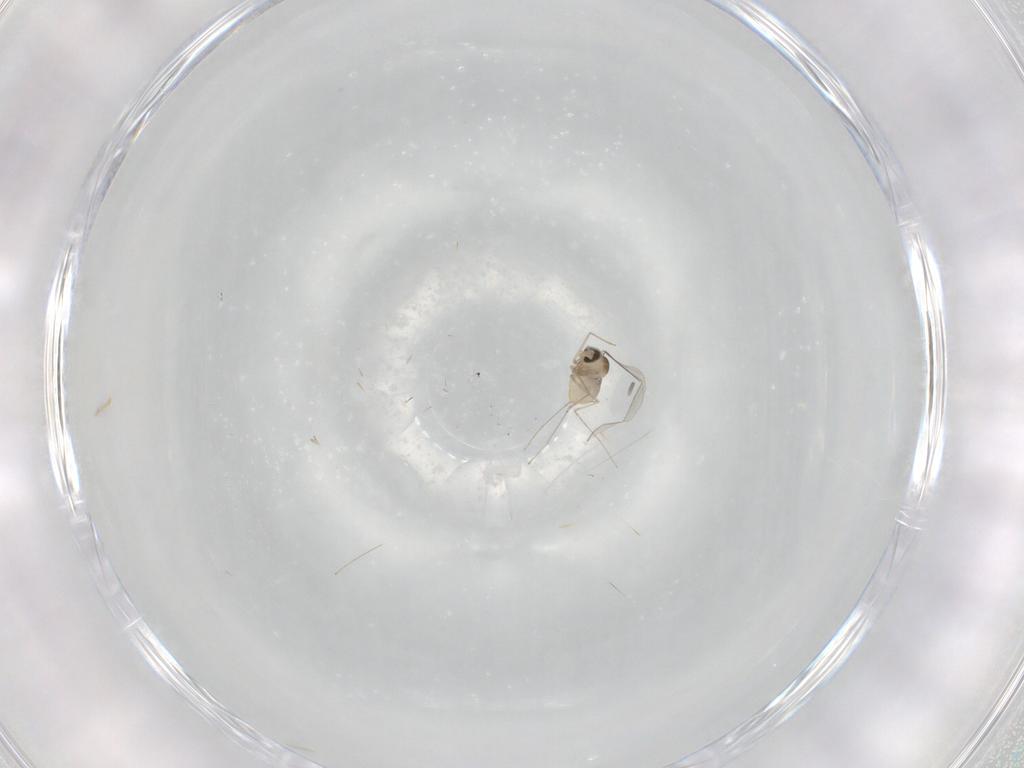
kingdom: Animalia
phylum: Arthropoda
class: Insecta
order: Diptera
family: Cecidomyiidae
